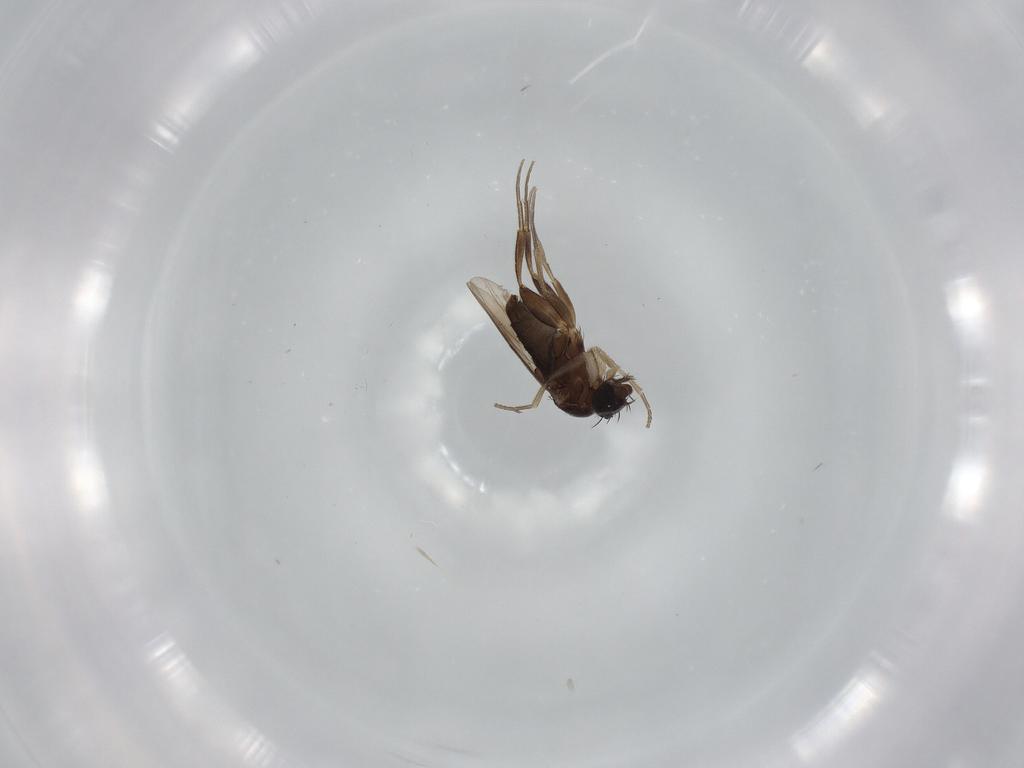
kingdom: Animalia
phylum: Arthropoda
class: Insecta
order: Diptera
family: Phoridae
